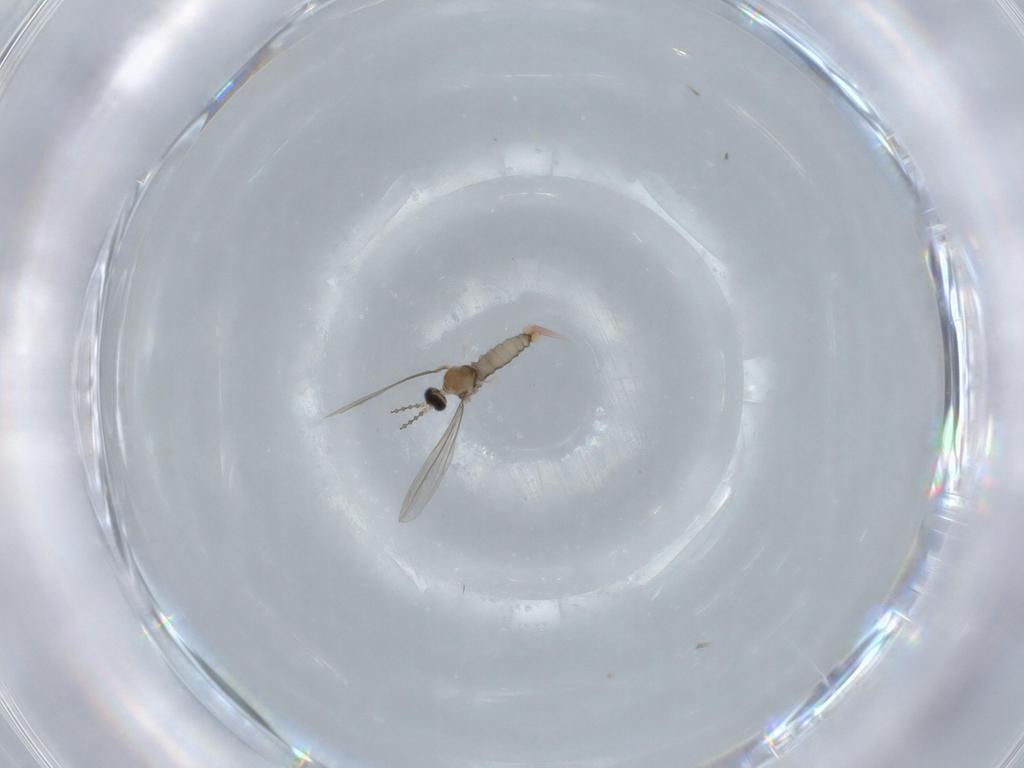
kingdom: Animalia
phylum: Arthropoda
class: Insecta
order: Diptera
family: Cecidomyiidae
